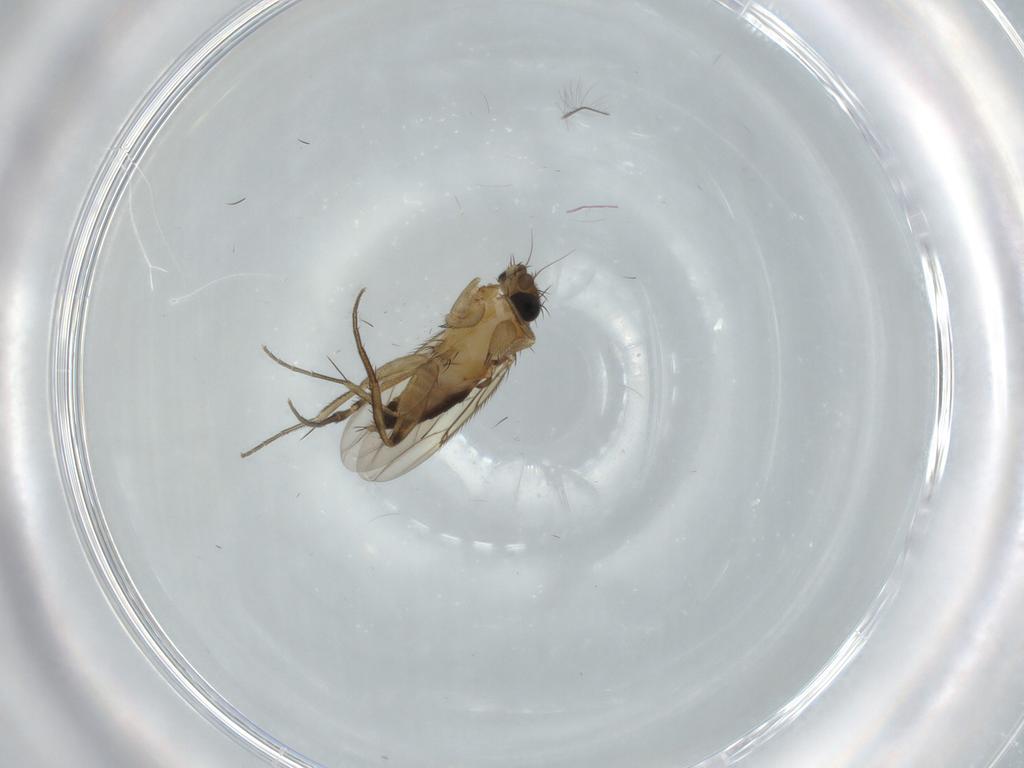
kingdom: Animalia
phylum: Arthropoda
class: Insecta
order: Diptera
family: Phoridae
